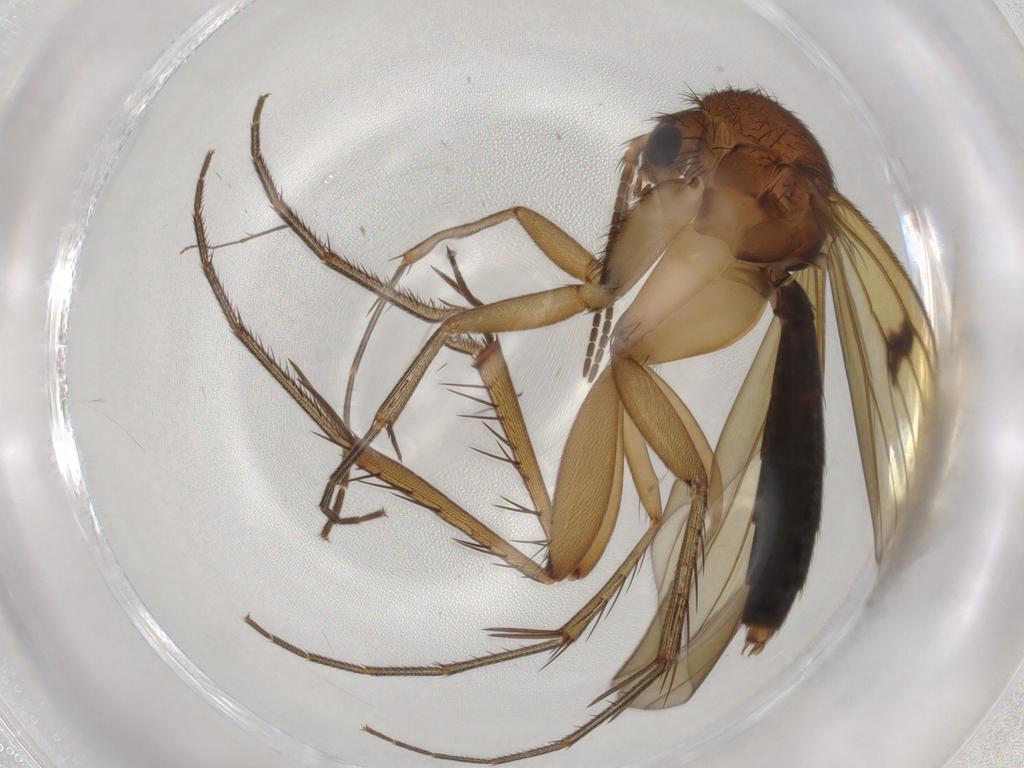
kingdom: Animalia
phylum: Arthropoda
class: Insecta
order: Diptera
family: Mycetophilidae
